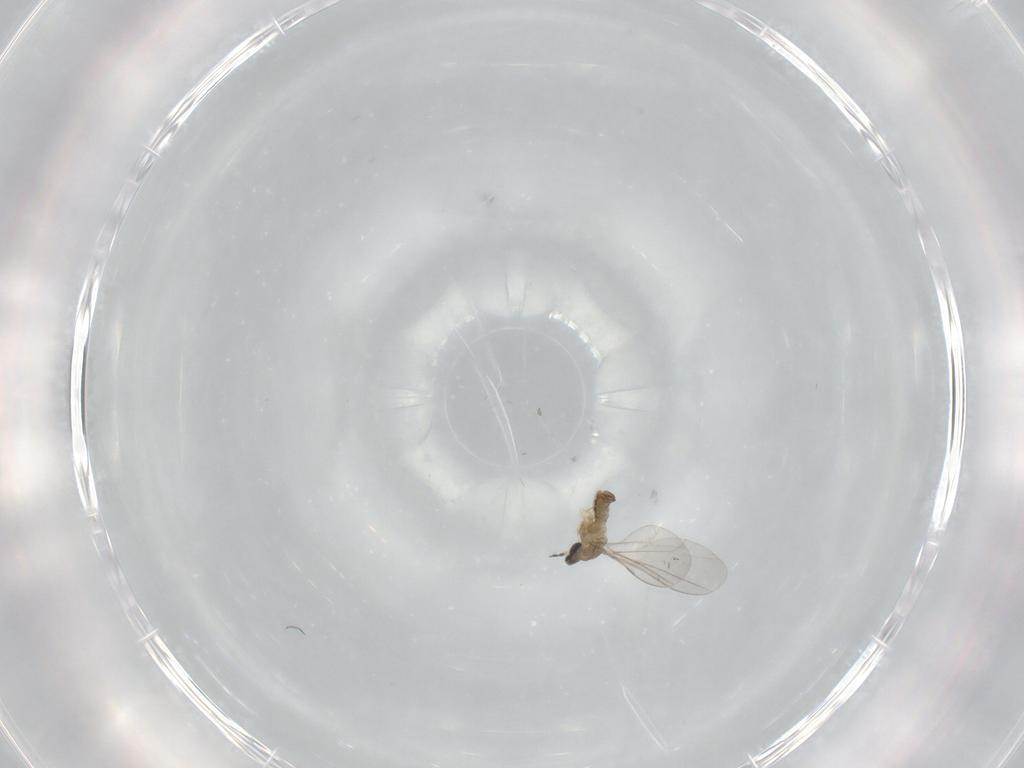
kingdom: Animalia
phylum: Arthropoda
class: Insecta
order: Diptera
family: Cecidomyiidae
